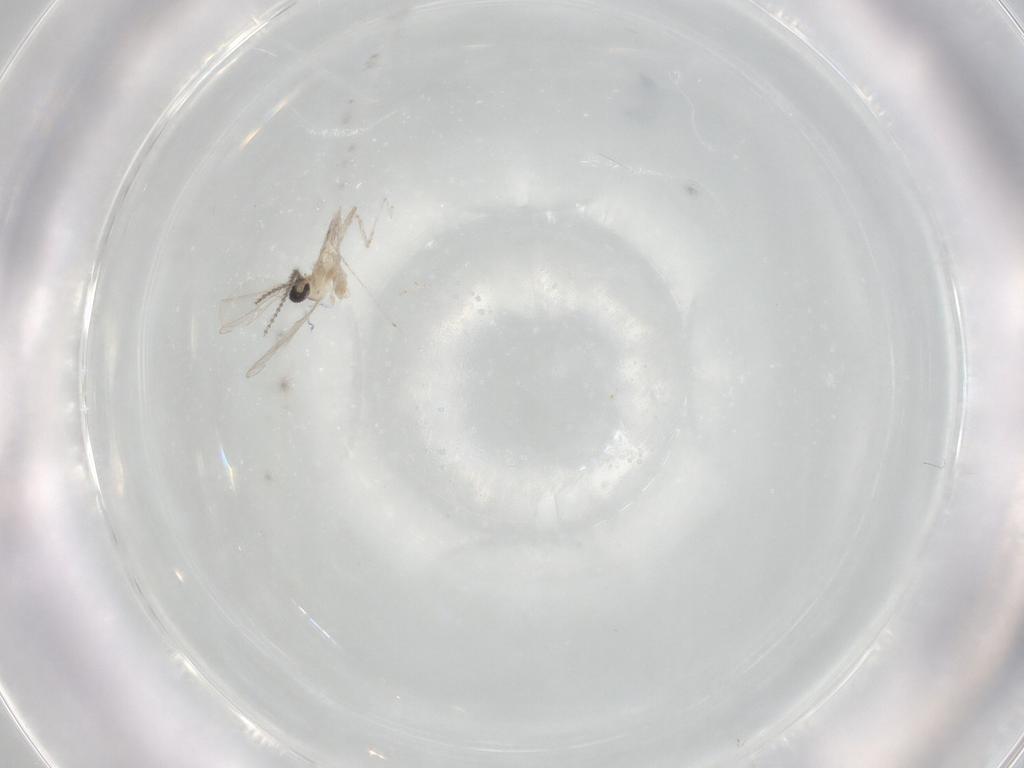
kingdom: Animalia
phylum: Arthropoda
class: Insecta
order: Diptera
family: Cecidomyiidae
